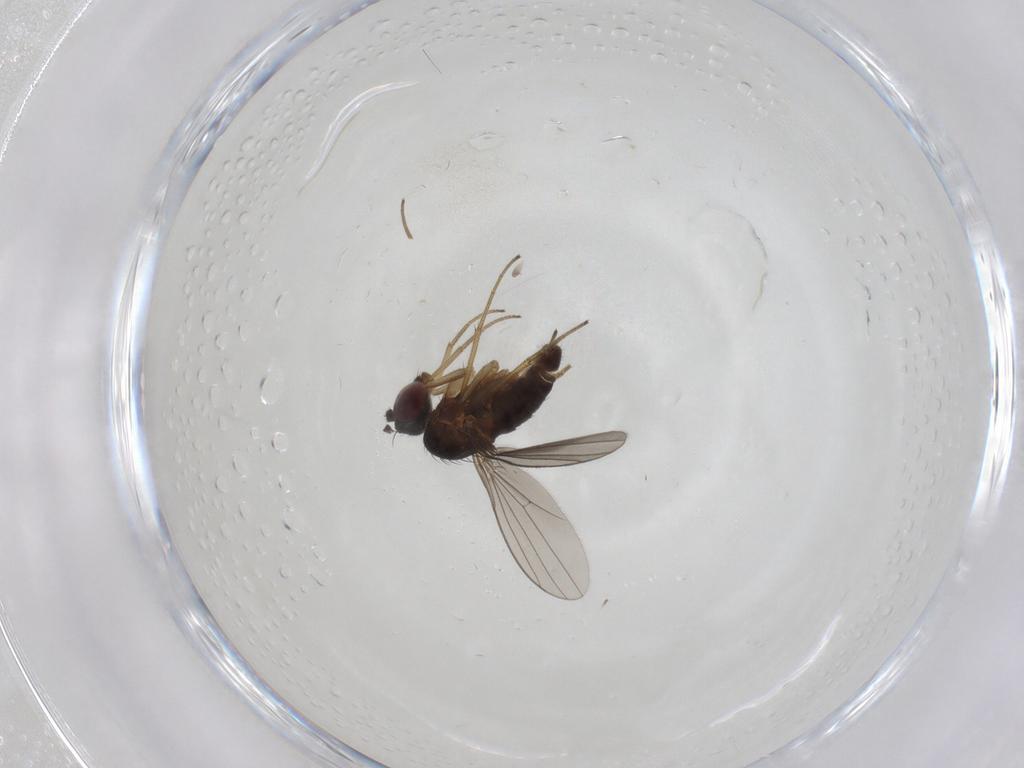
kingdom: Animalia
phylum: Arthropoda
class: Insecta
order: Diptera
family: Dolichopodidae
